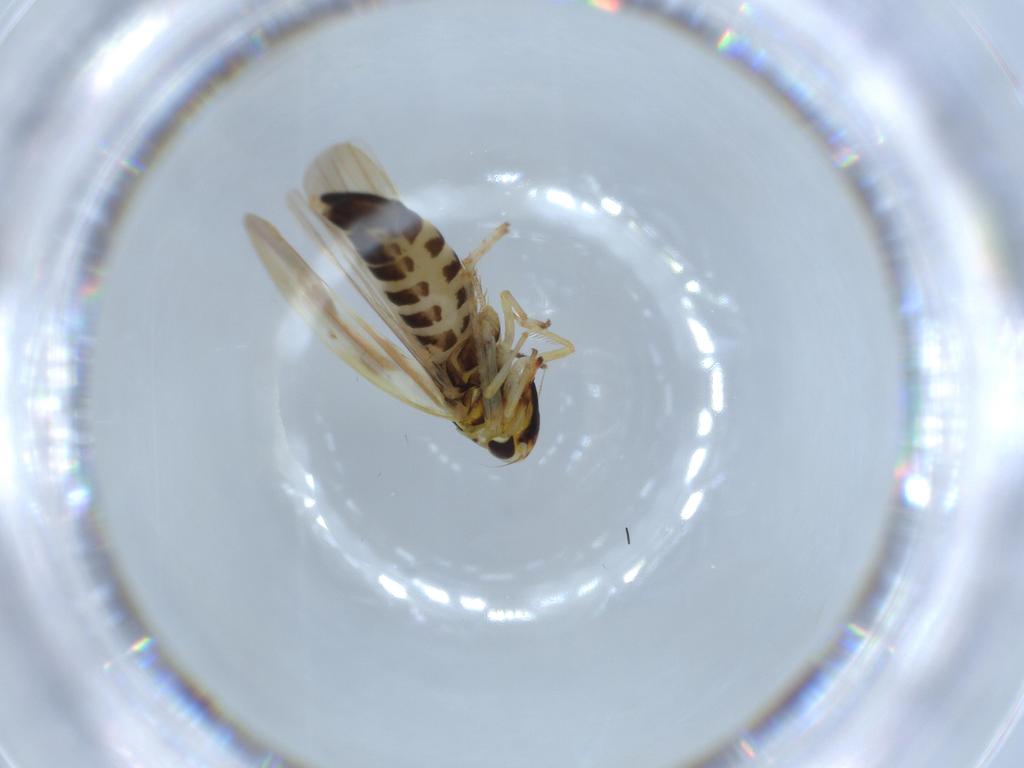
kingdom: Animalia
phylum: Arthropoda
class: Insecta
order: Hemiptera
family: Cicadellidae
